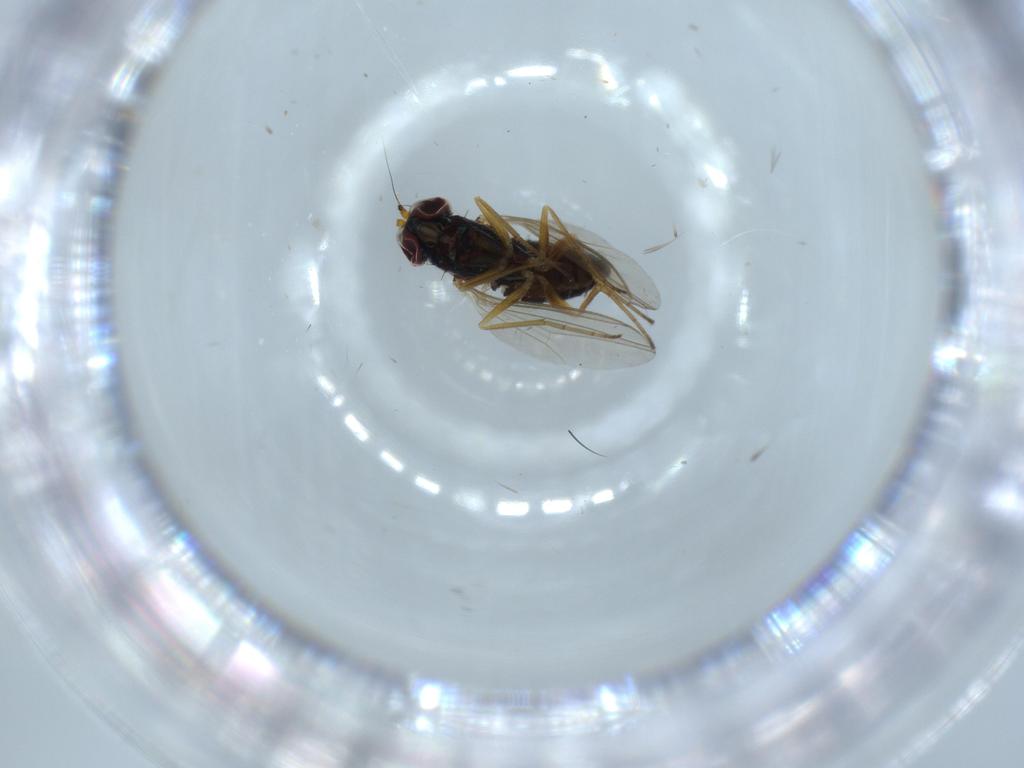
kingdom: Animalia
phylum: Arthropoda
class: Insecta
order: Diptera
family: Dolichopodidae
